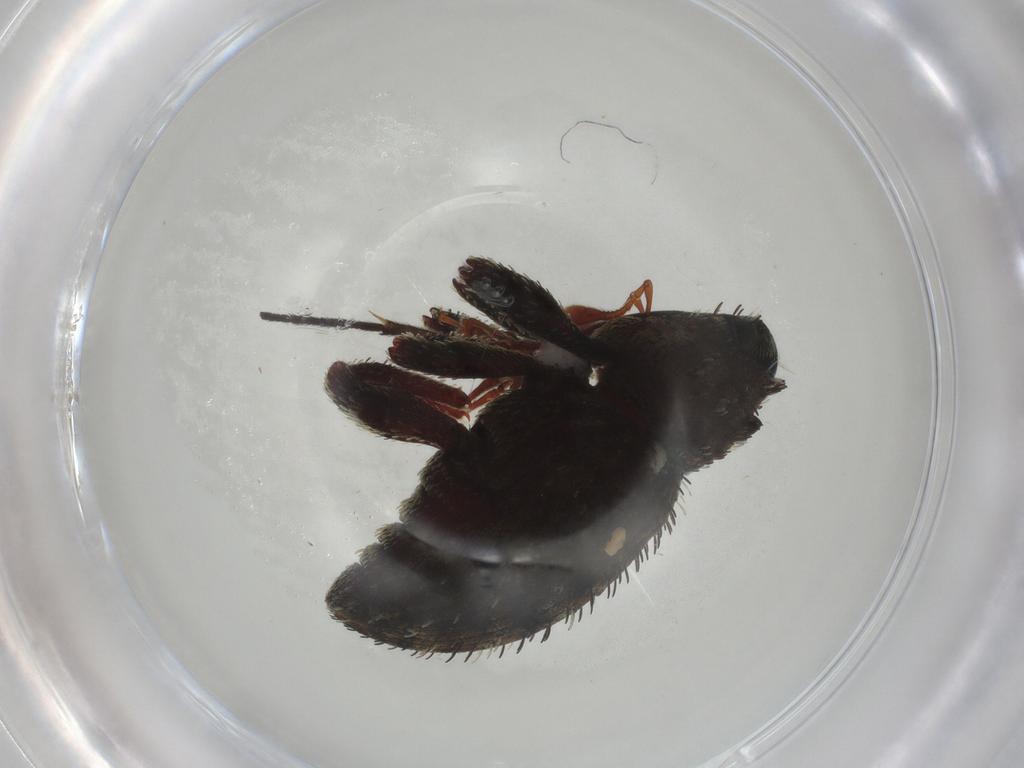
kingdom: Animalia
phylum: Arthropoda
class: Insecta
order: Coleoptera
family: Curculionidae
